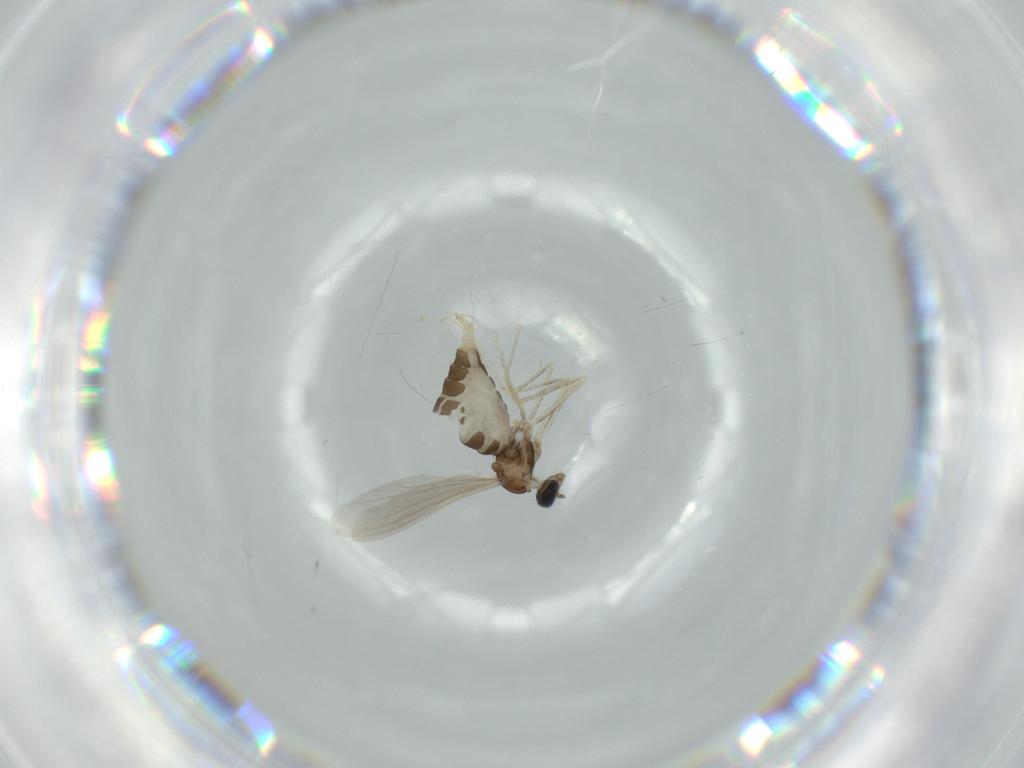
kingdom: Animalia
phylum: Arthropoda
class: Insecta
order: Diptera
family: Cecidomyiidae
